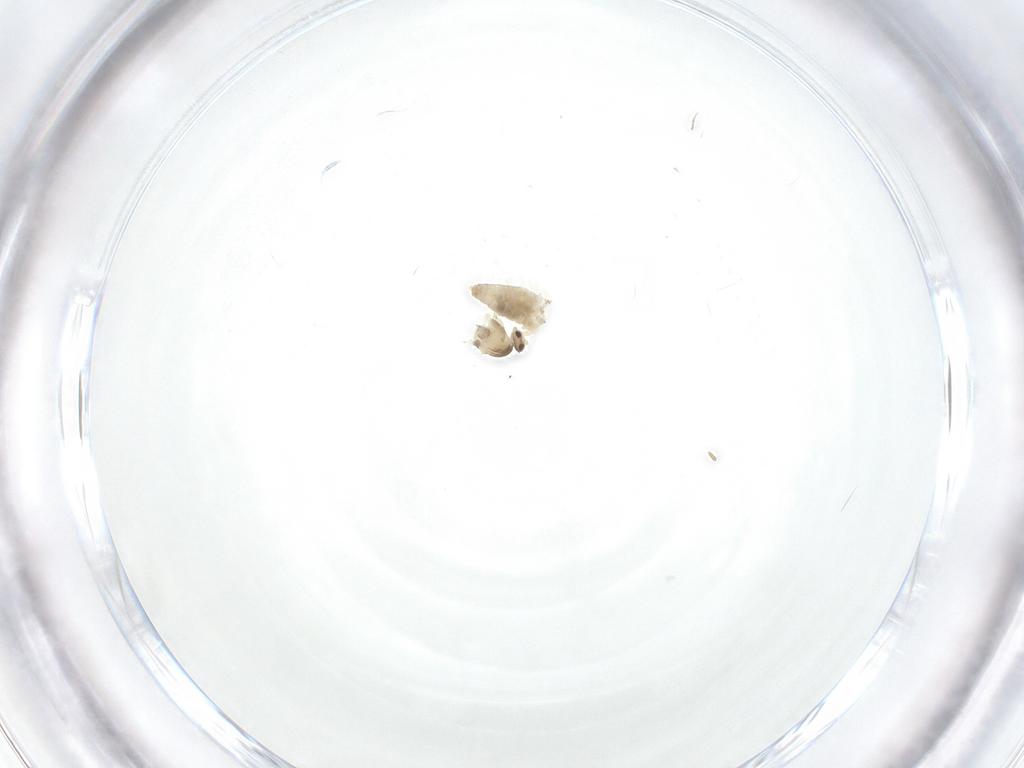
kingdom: Animalia
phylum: Arthropoda
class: Insecta
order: Diptera
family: Cecidomyiidae
